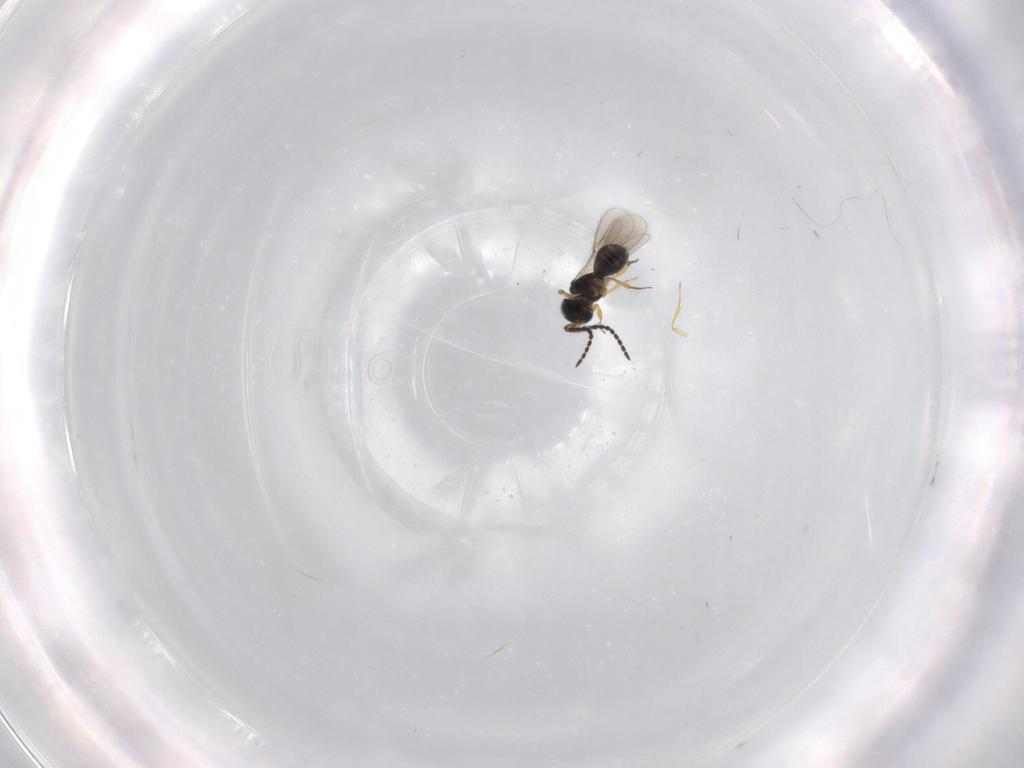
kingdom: Animalia
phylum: Arthropoda
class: Insecta
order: Hymenoptera
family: Scelionidae
